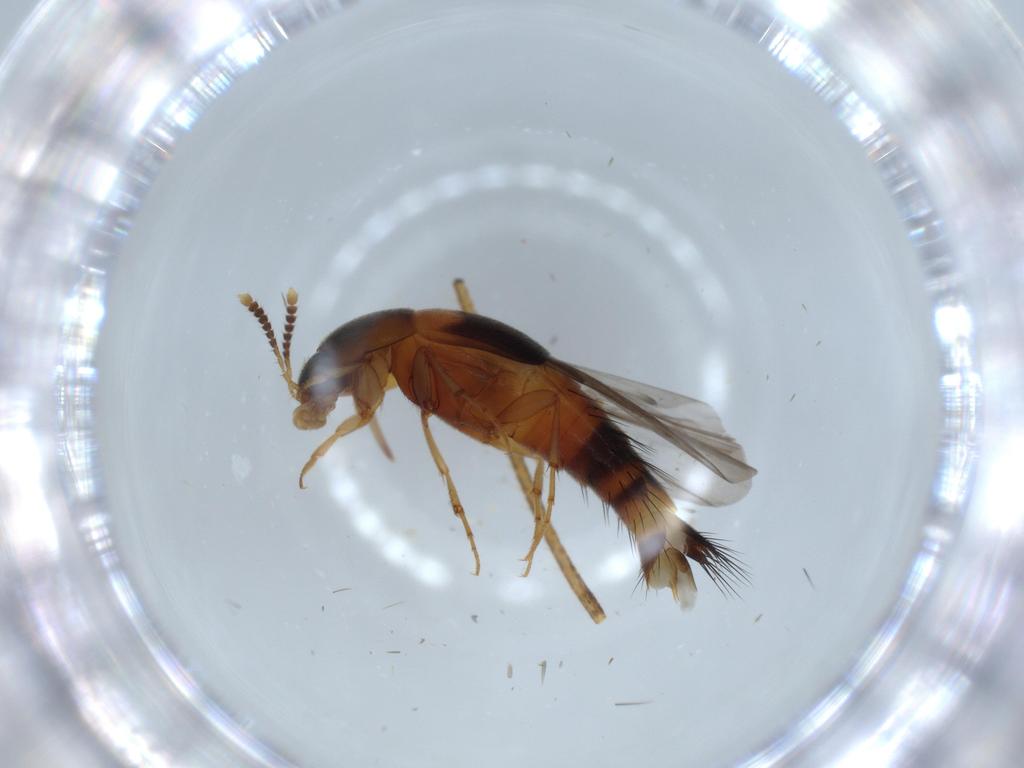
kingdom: Animalia
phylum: Arthropoda
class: Insecta
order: Coleoptera
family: Staphylinidae
